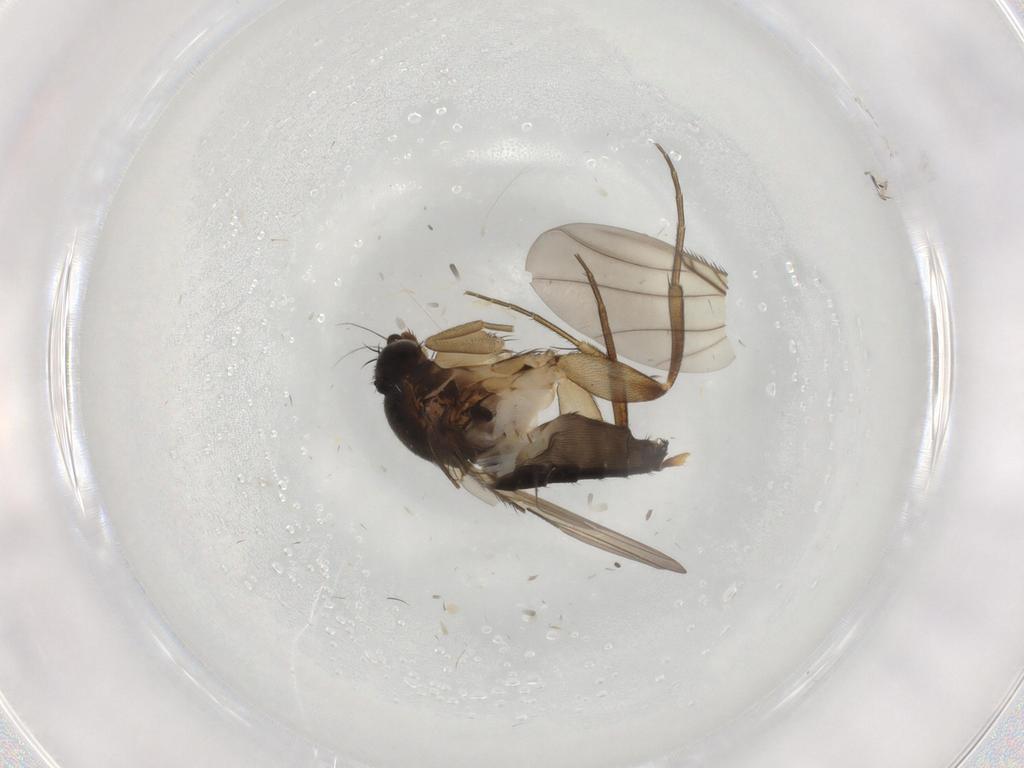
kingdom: Animalia
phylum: Arthropoda
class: Insecta
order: Diptera
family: Phoridae
